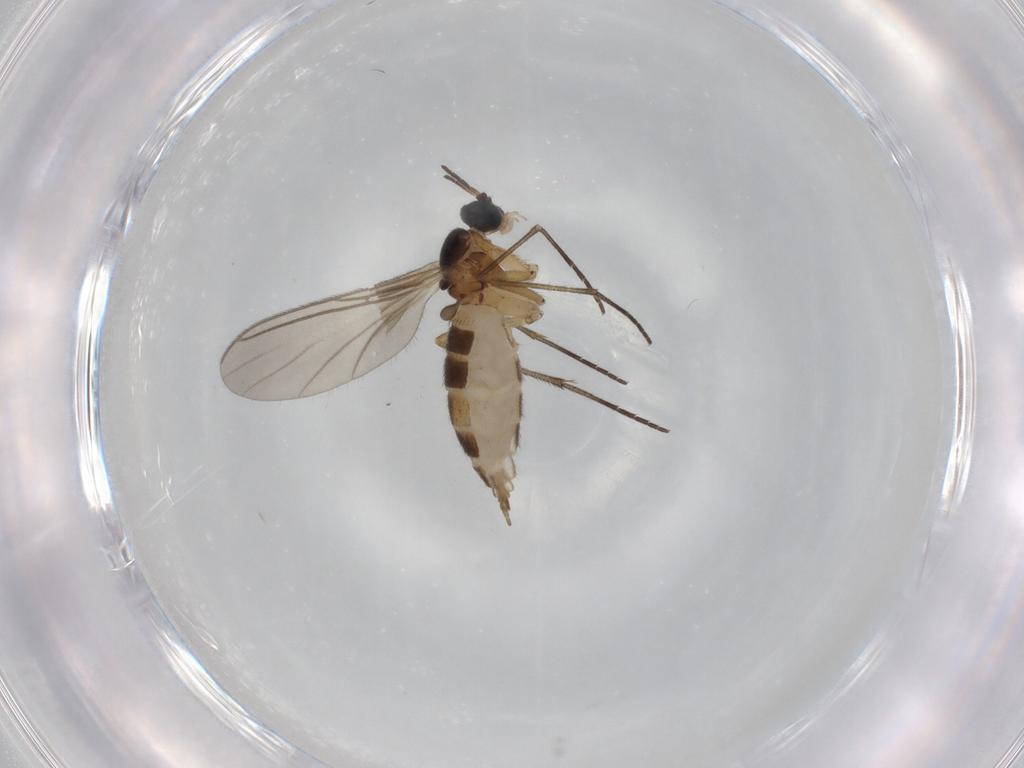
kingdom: Animalia
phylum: Arthropoda
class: Insecta
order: Diptera
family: Sciaridae
